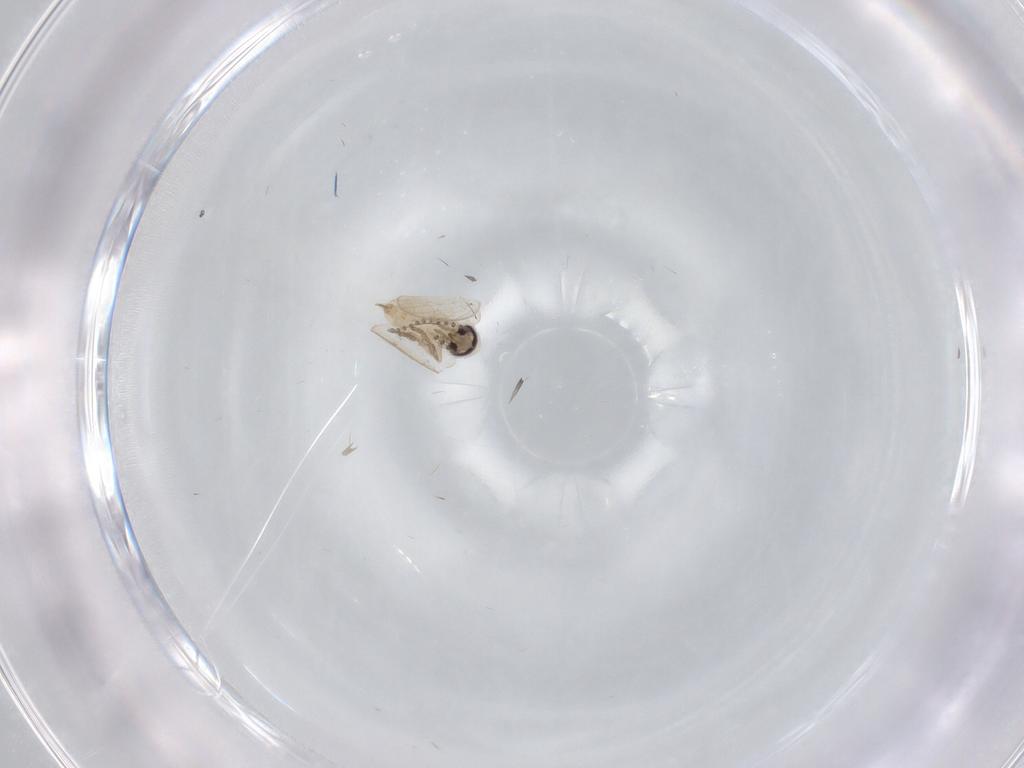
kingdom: Animalia
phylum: Arthropoda
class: Insecta
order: Diptera
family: Psychodidae
